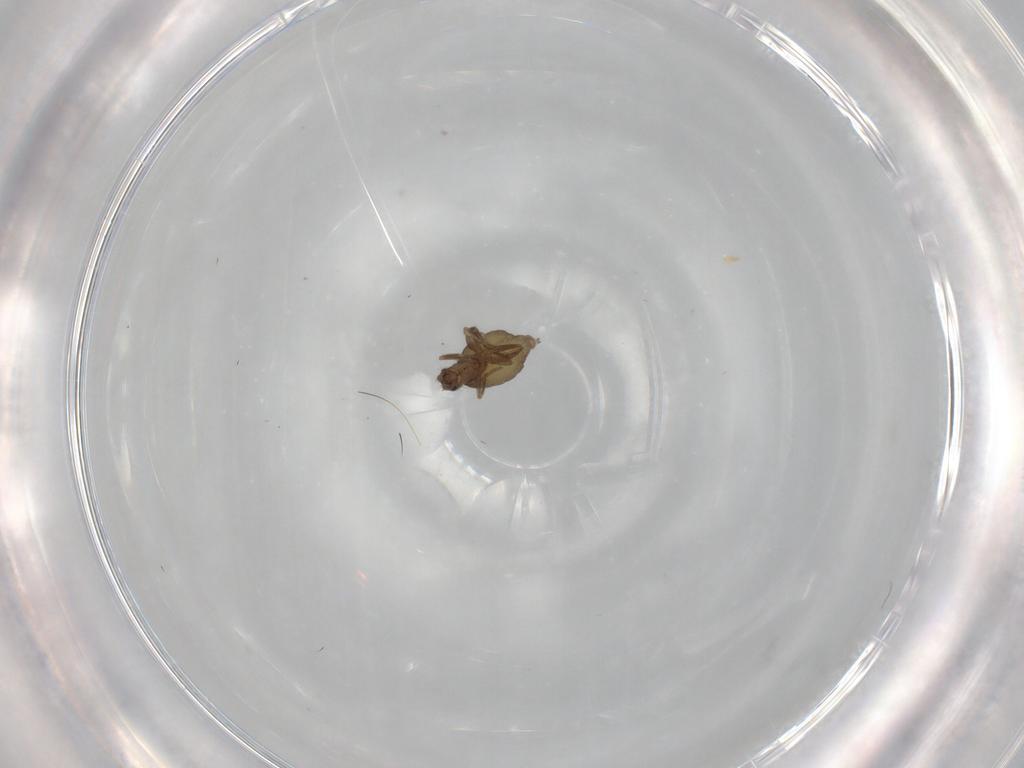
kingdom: Animalia
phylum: Arthropoda
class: Insecta
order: Diptera
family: Phoridae
